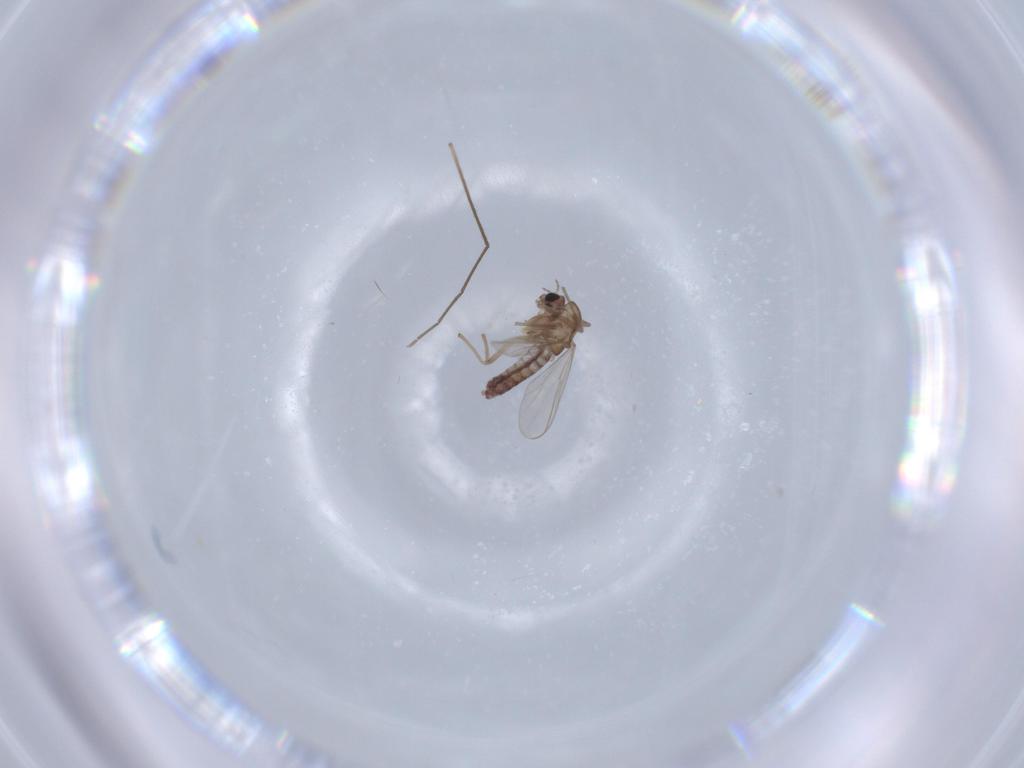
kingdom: Animalia
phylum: Arthropoda
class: Insecta
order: Diptera
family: Chironomidae
